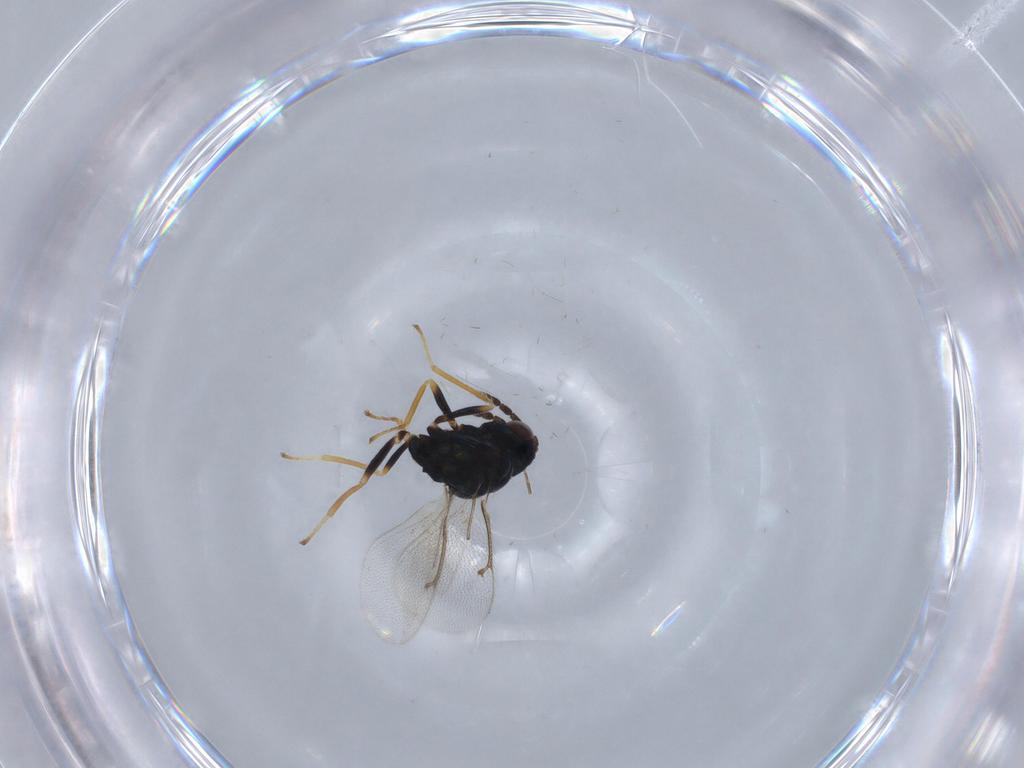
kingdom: Animalia
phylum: Arthropoda
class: Insecta
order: Hymenoptera
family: Eulophidae
